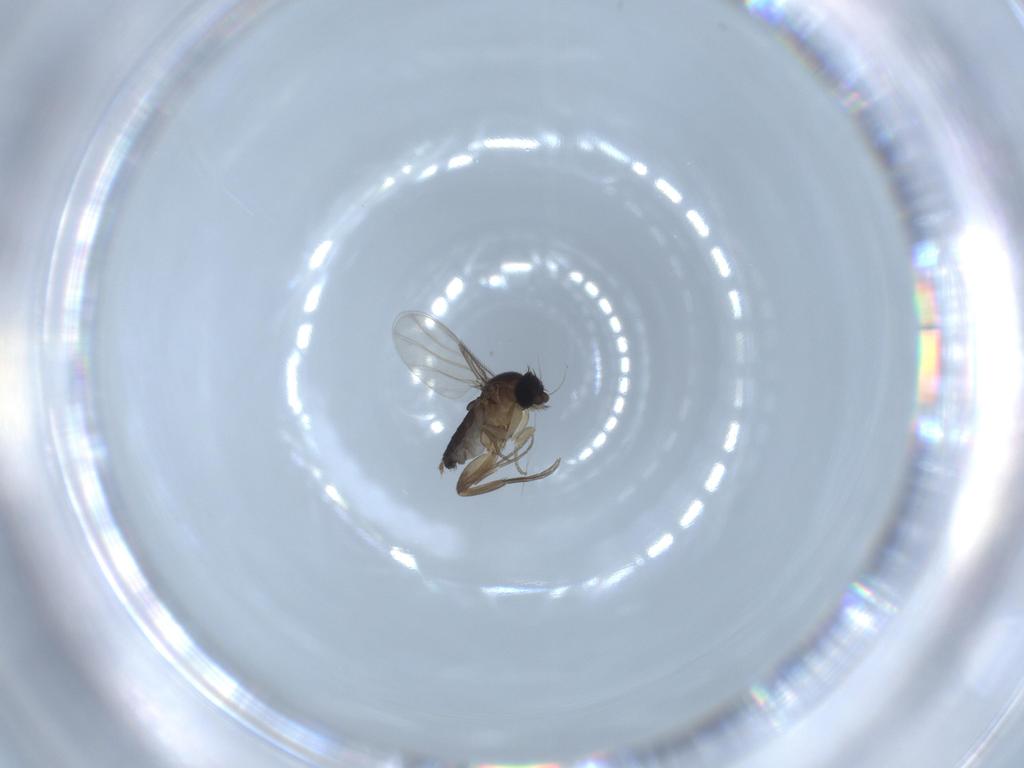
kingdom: Animalia
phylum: Arthropoda
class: Insecta
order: Diptera
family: Phoridae
